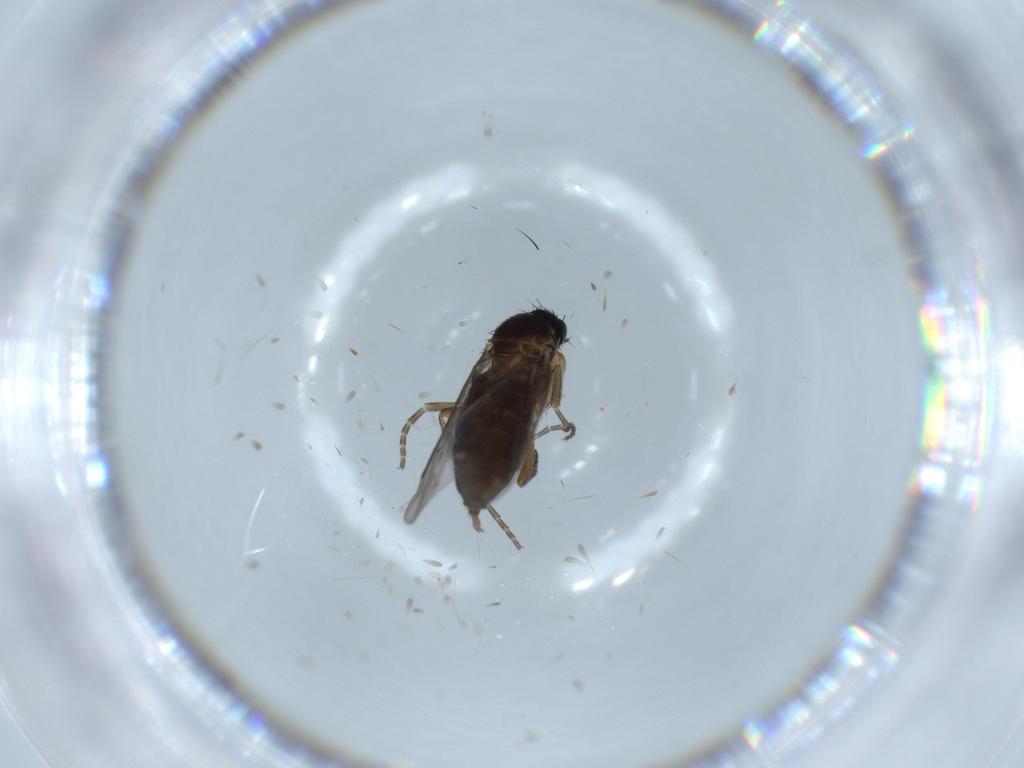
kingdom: Animalia
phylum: Arthropoda
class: Insecta
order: Diptera
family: Phoridae
